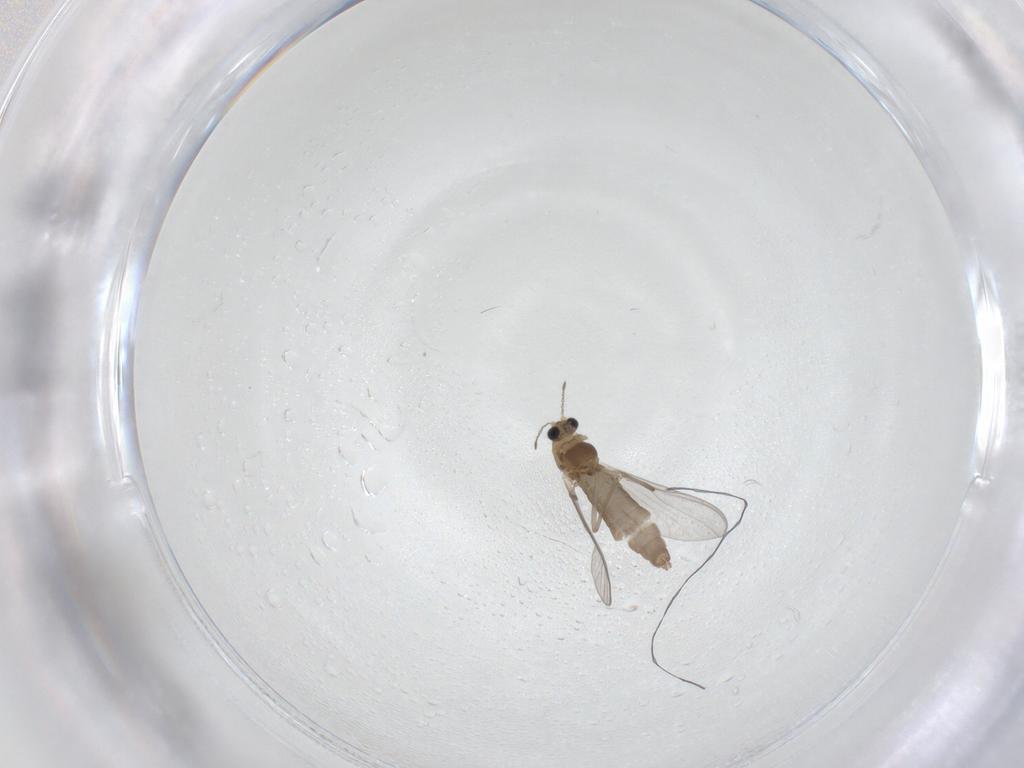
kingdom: Animalia
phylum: Arthropoda
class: Insecta
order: Diptera
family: Chironomidae
